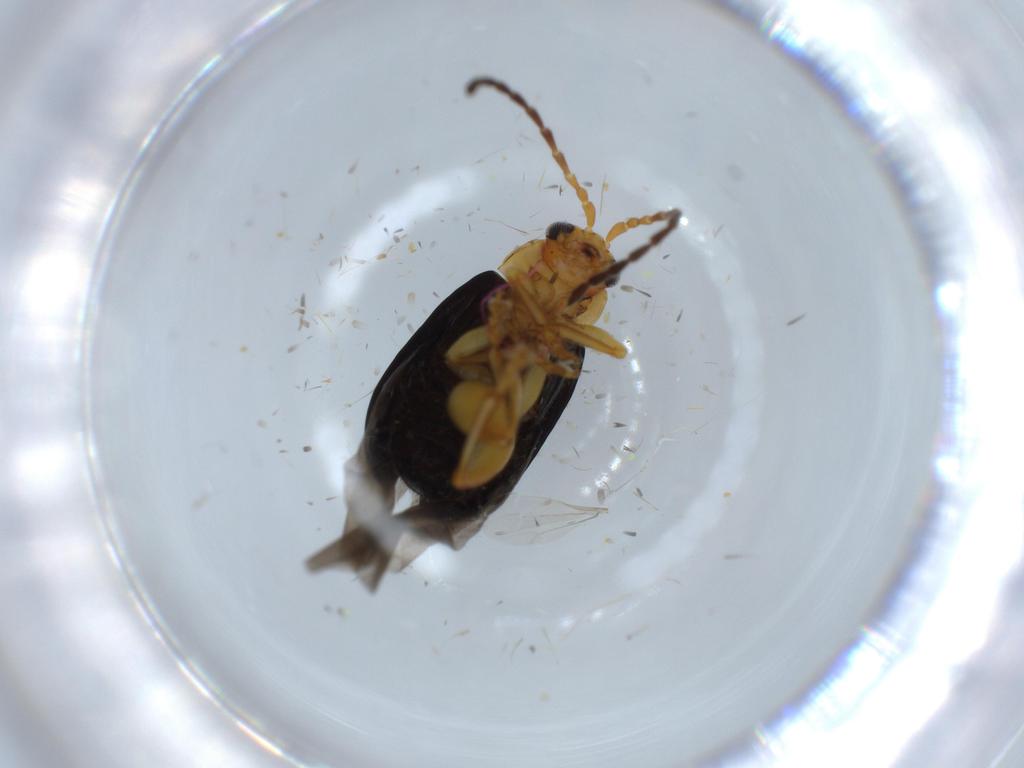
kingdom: Animalia
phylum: Arthropoda
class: Insecta
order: Coleoptera
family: Chrysomelidae
